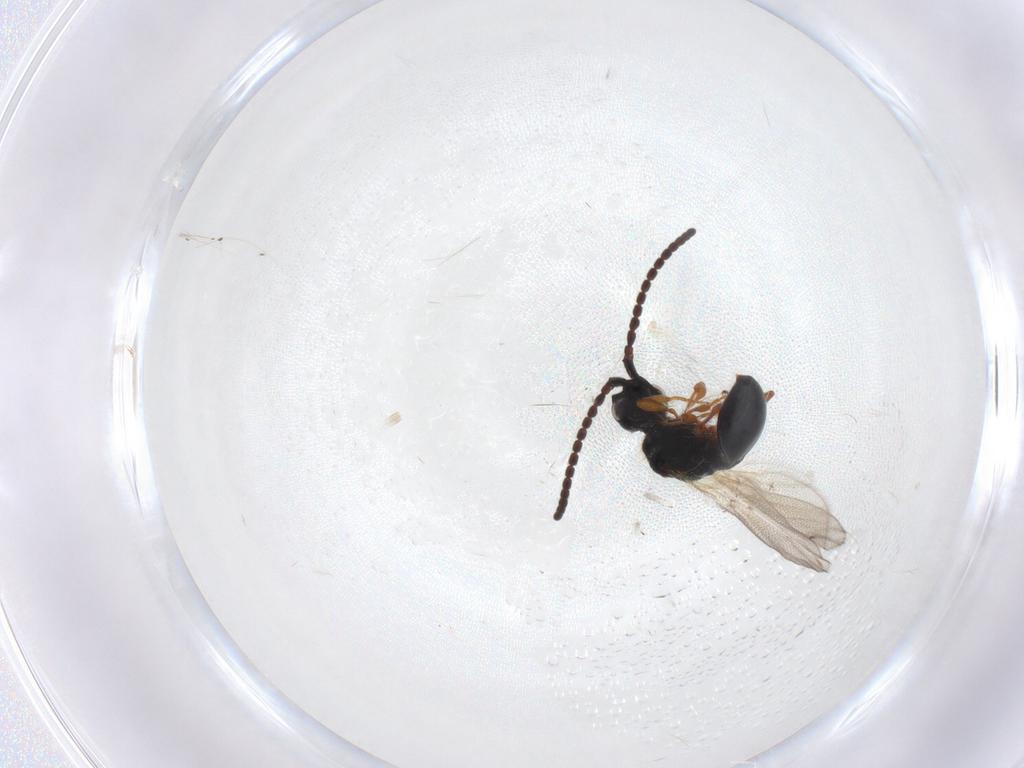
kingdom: Animalia
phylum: Arthropoda
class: Insecta
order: Hymenoptera
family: Diapriidae
